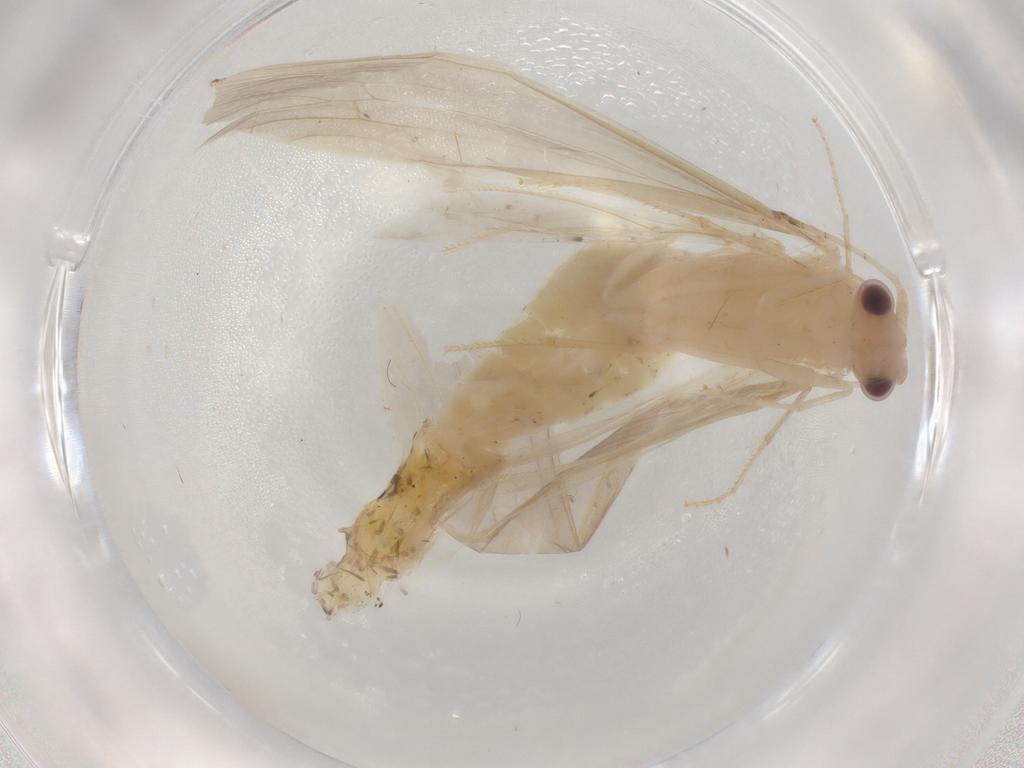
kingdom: Animalia
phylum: Arthropoda
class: Insecta
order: Trichoptera
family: Leptoceridae
